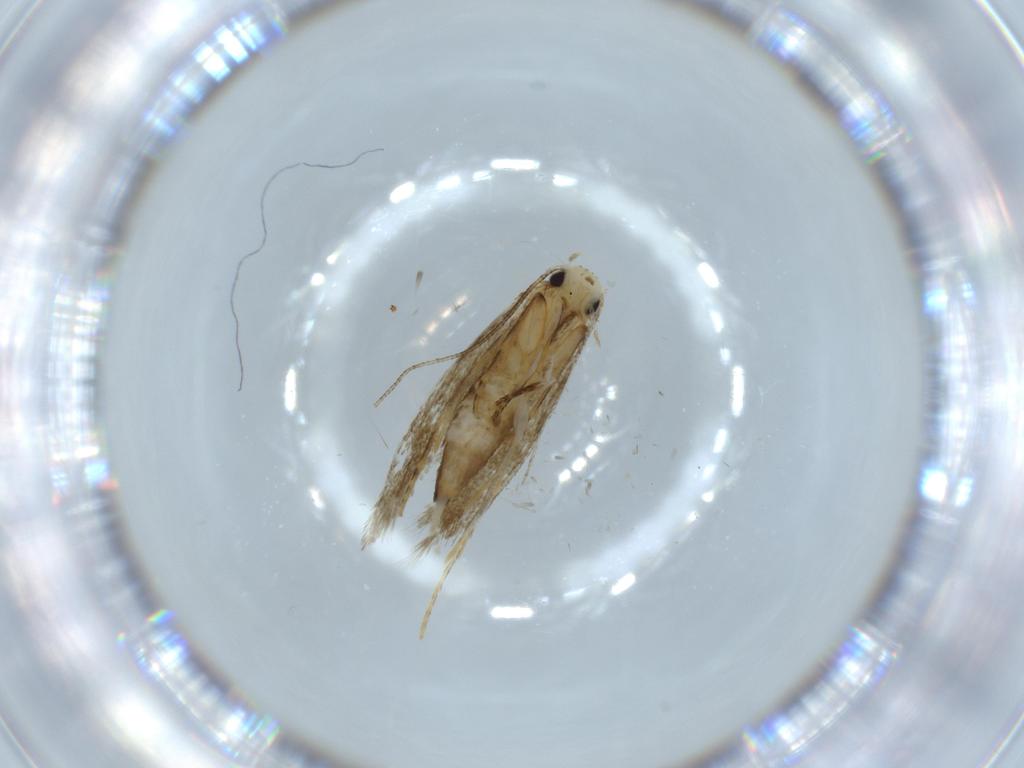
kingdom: Animalia
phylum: Arthropoda
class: Insecta
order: Lepidoptera
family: Tineidae
